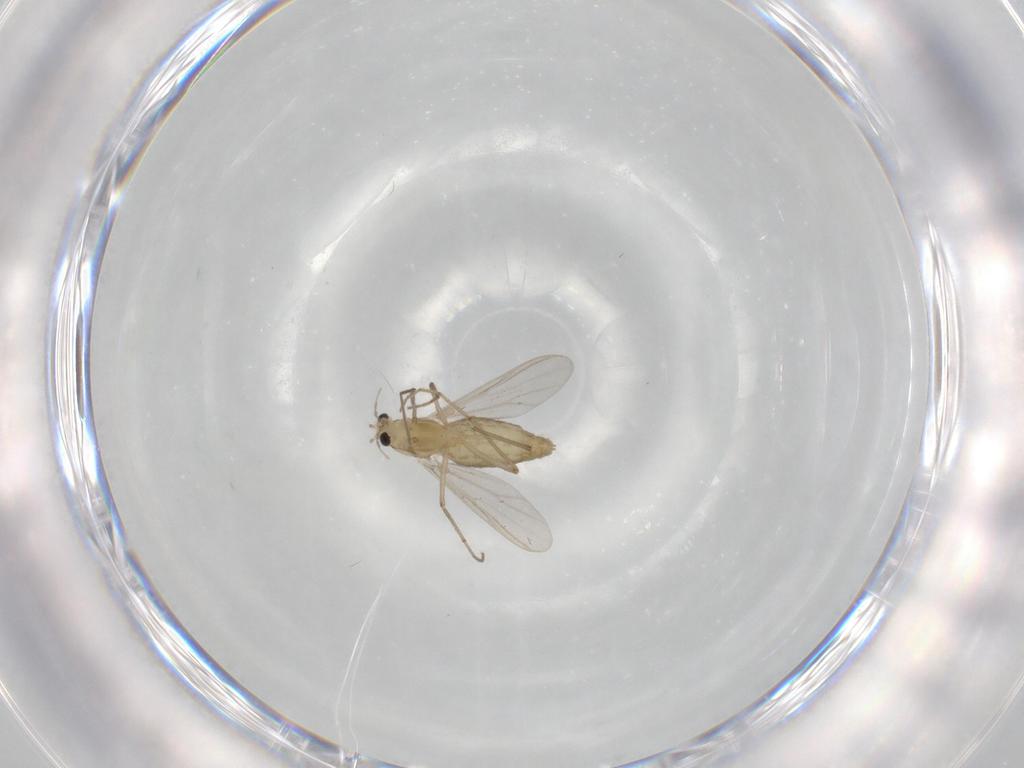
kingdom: Animalia
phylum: Arthropoda
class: Insecta
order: Diptera
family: Chironomidae
